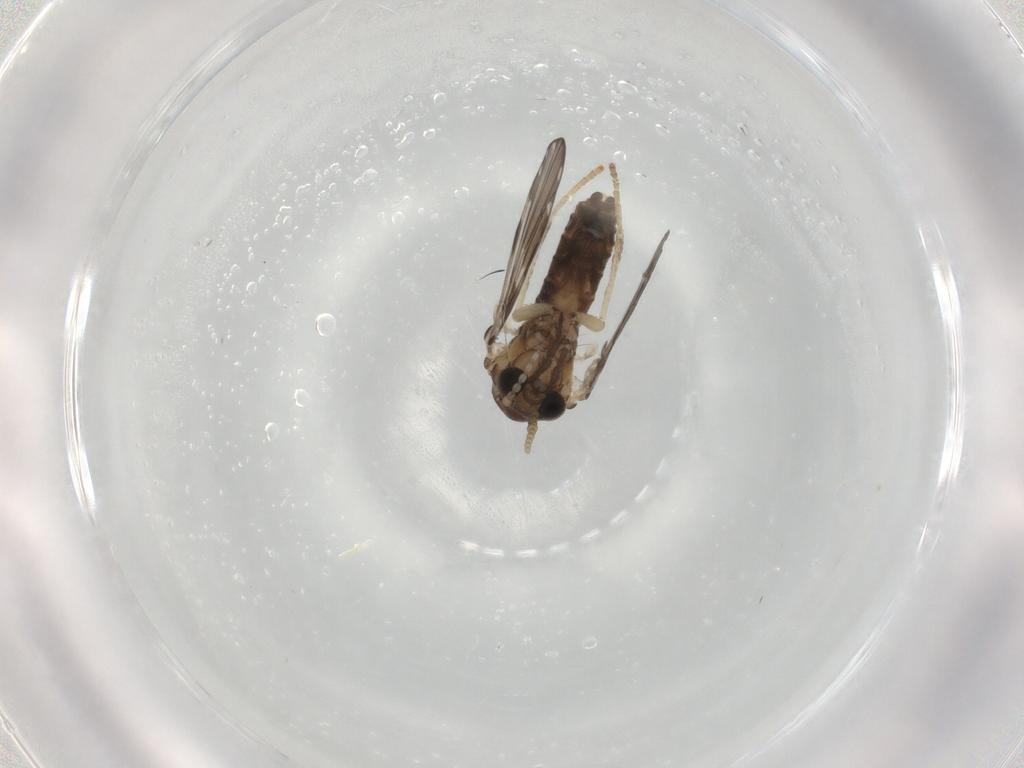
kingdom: Animalia
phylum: Arthropoda
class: Insecta
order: Diptera
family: Psychodidae
